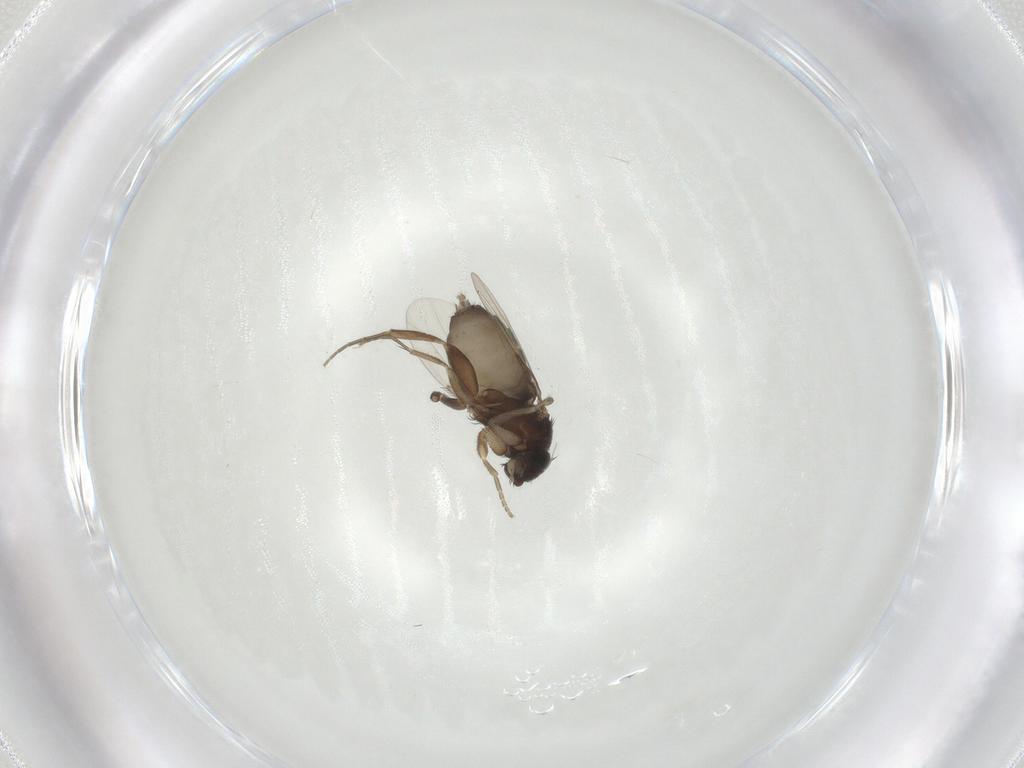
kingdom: Animalia
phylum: Arthropoda
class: Insecta
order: Diptera
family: Phoridae
